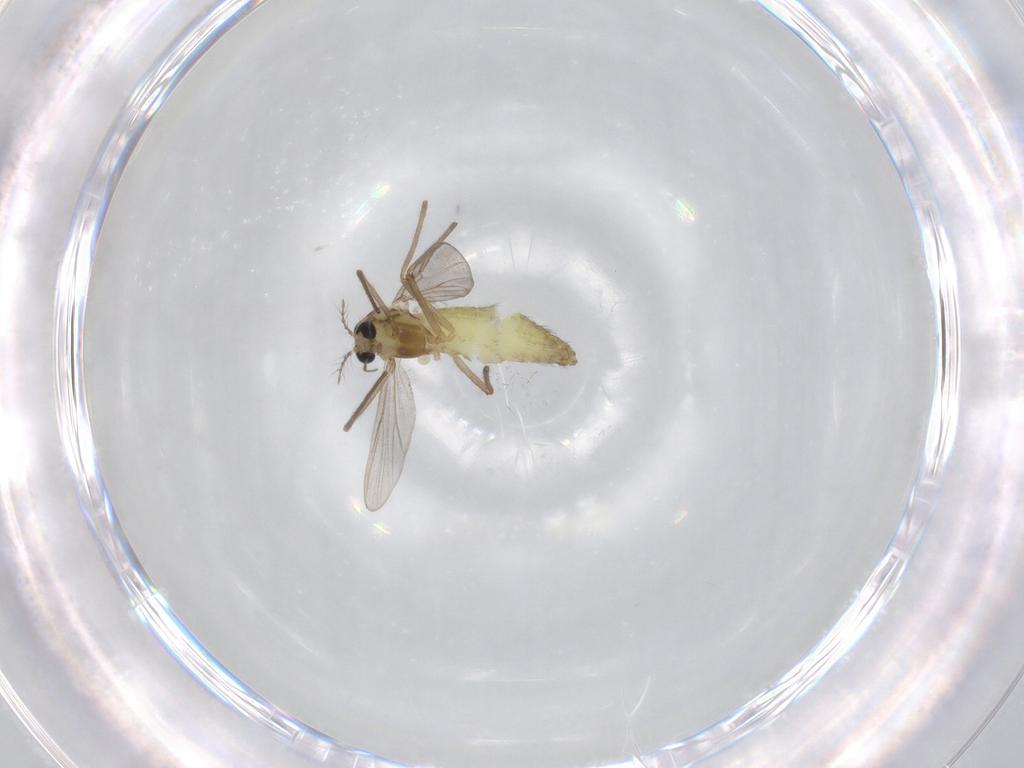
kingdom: Animalia
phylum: Arthropoda
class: Insecta
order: Diptera
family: Chironomidae
